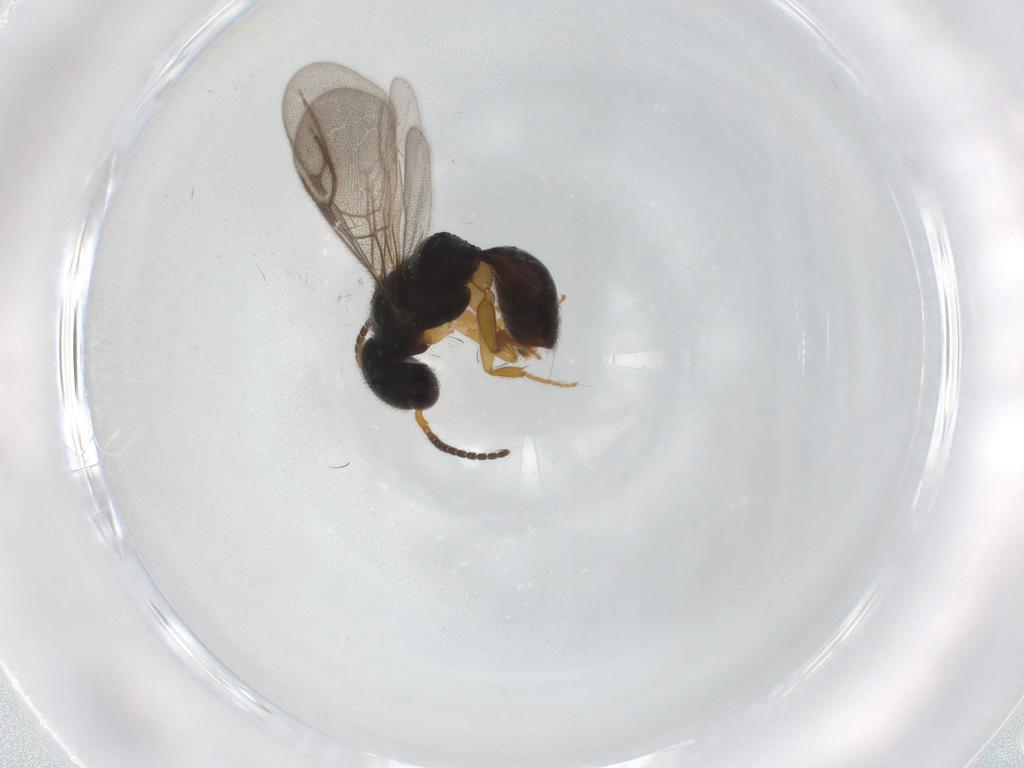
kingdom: Animalia
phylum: Arthropoda
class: Insecta
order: Hymenoptera
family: Bethylidae
